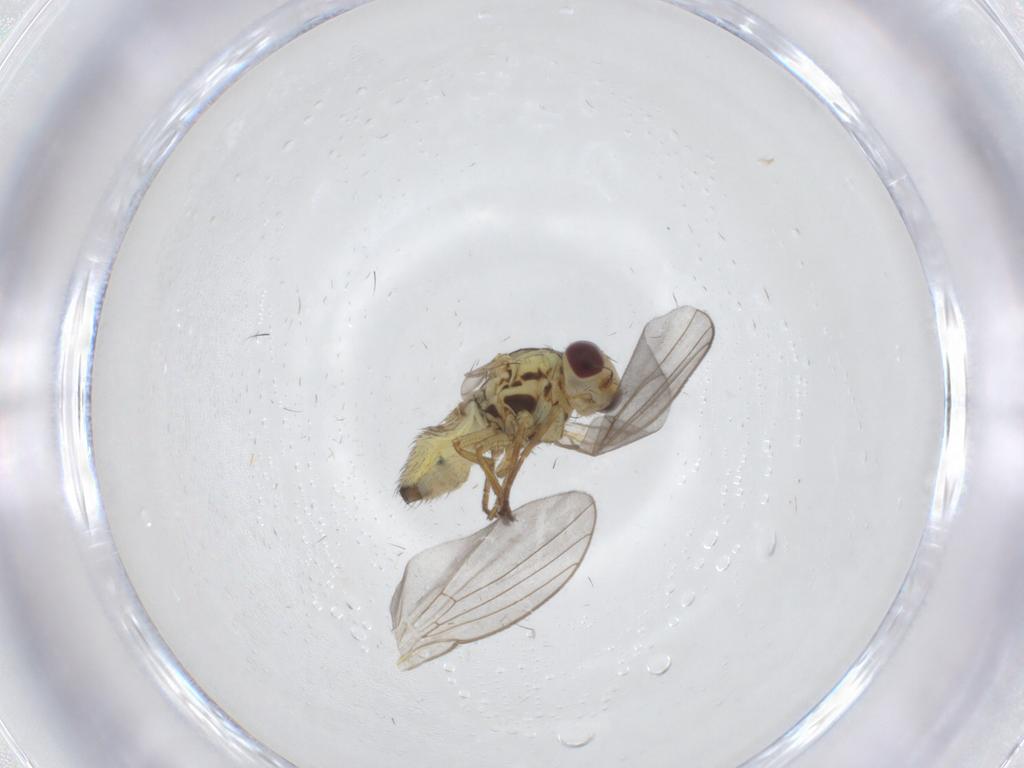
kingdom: Animalia
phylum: Arthropoda
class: Insecta
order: Diptera
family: Agromyzidae
